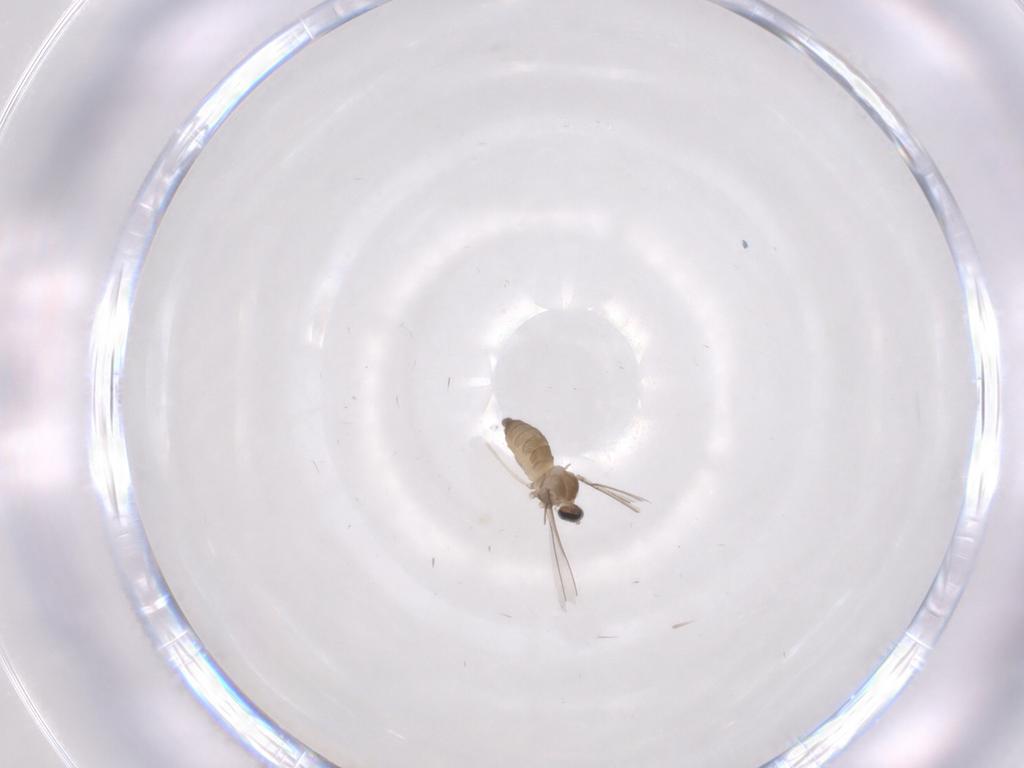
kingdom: Animalia
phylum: Arthropoda
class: Insecta
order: Diptera
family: Cecidomyiidae
